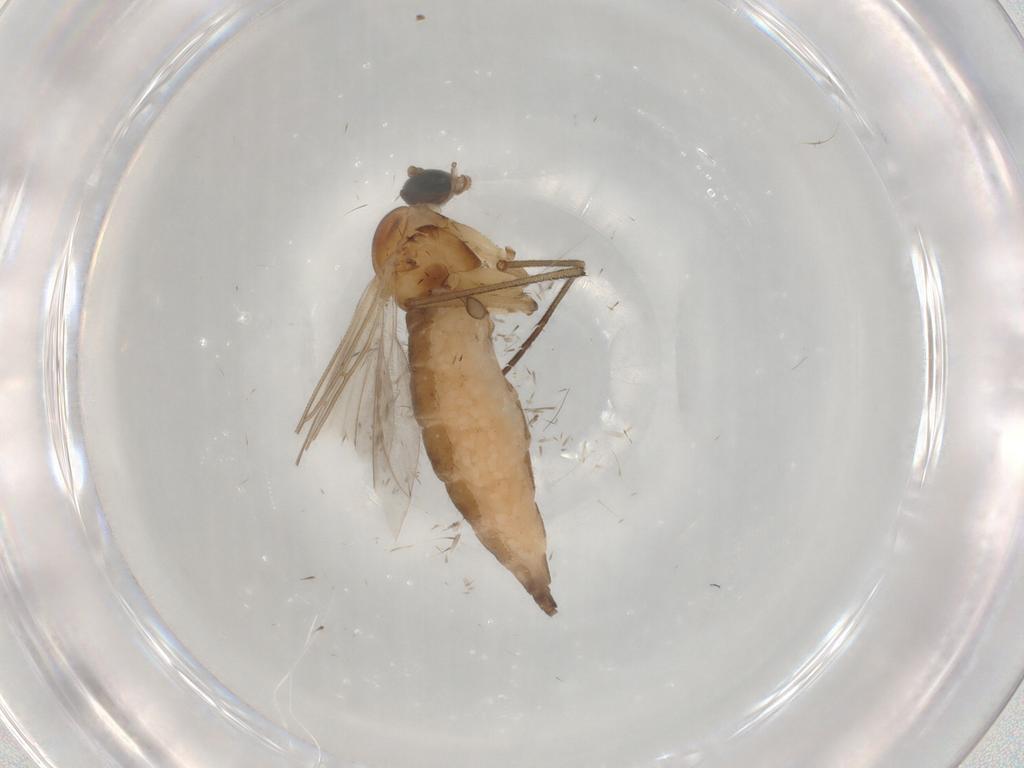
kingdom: Animalia
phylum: Arthropoda
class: Insecta
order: Diptera
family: Sciaridae
